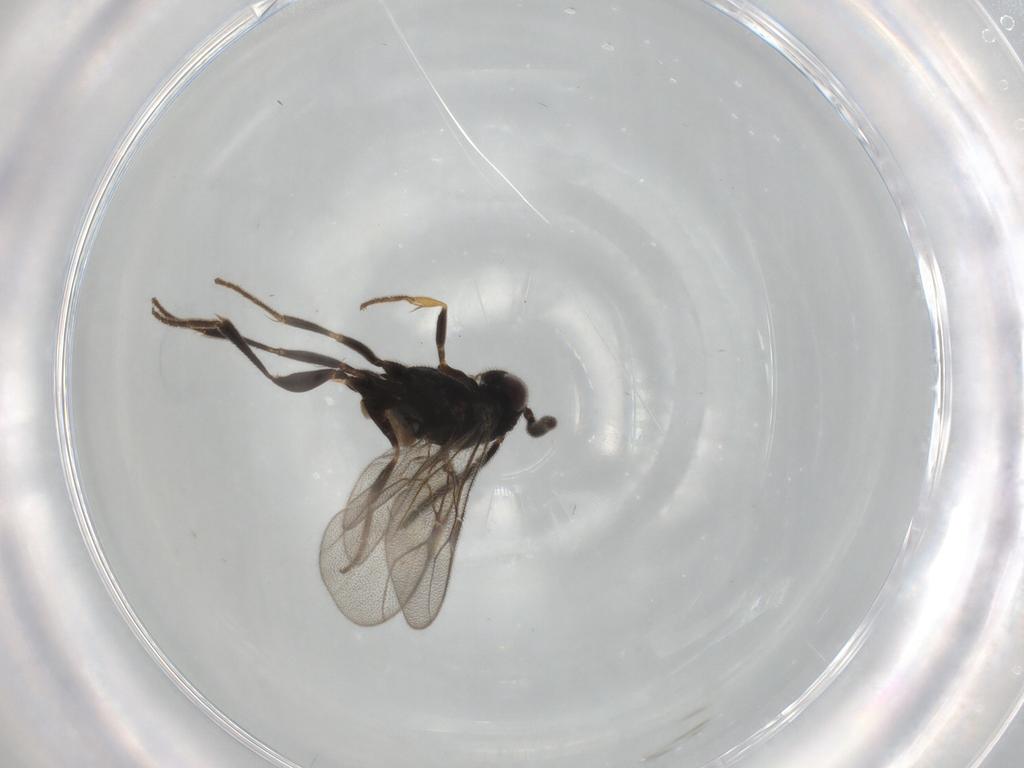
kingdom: Animalia
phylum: Arthropoda
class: Insecta
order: Hymenoptera
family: Dryinidae
